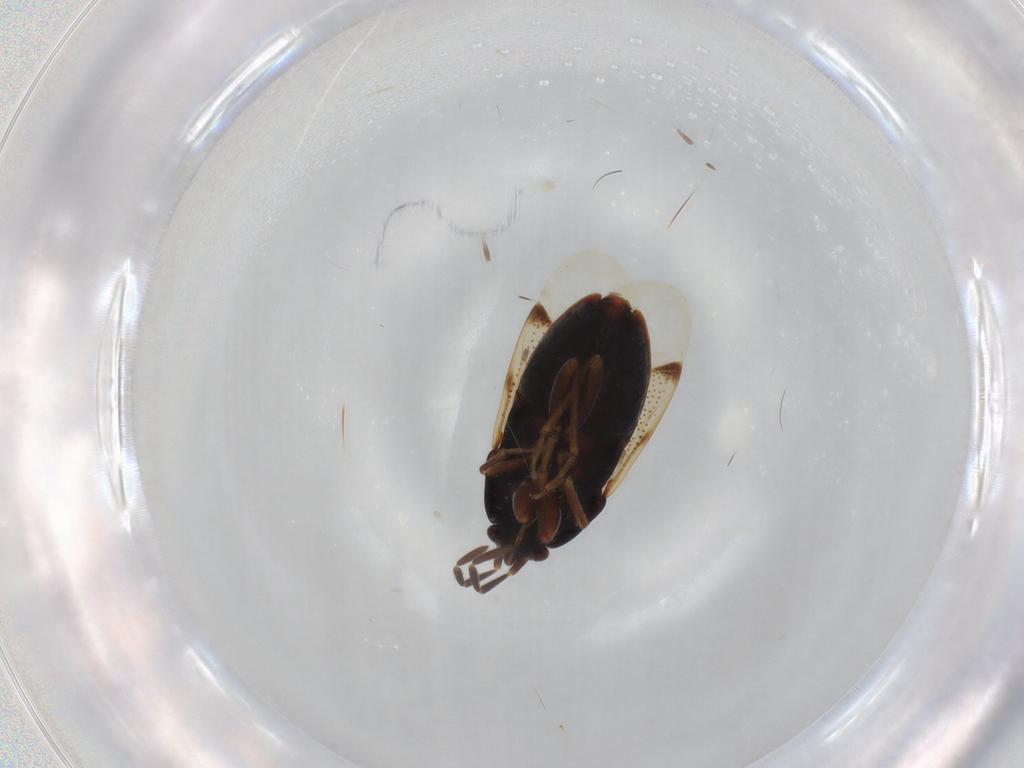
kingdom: Animalia
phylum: Arthropoda
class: Insecta
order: Hemiptera
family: Rhyparochromidae
